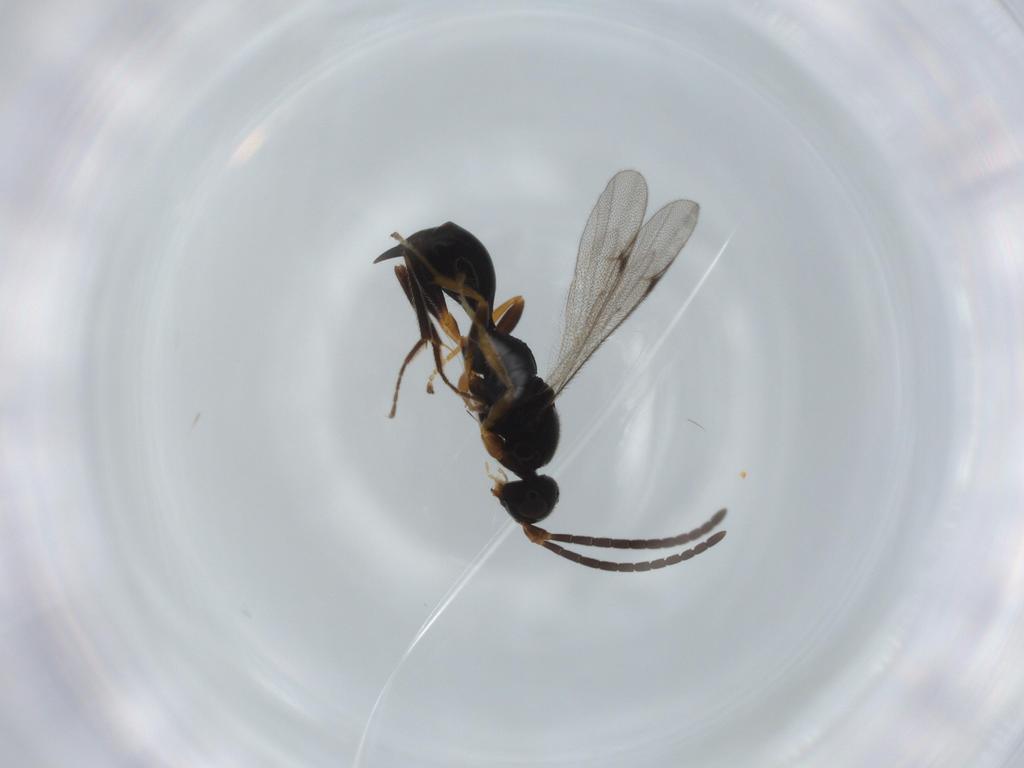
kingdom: Animalia
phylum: Arthropoda
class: Insecta
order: Hymenoptera
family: Proctotrupidae
